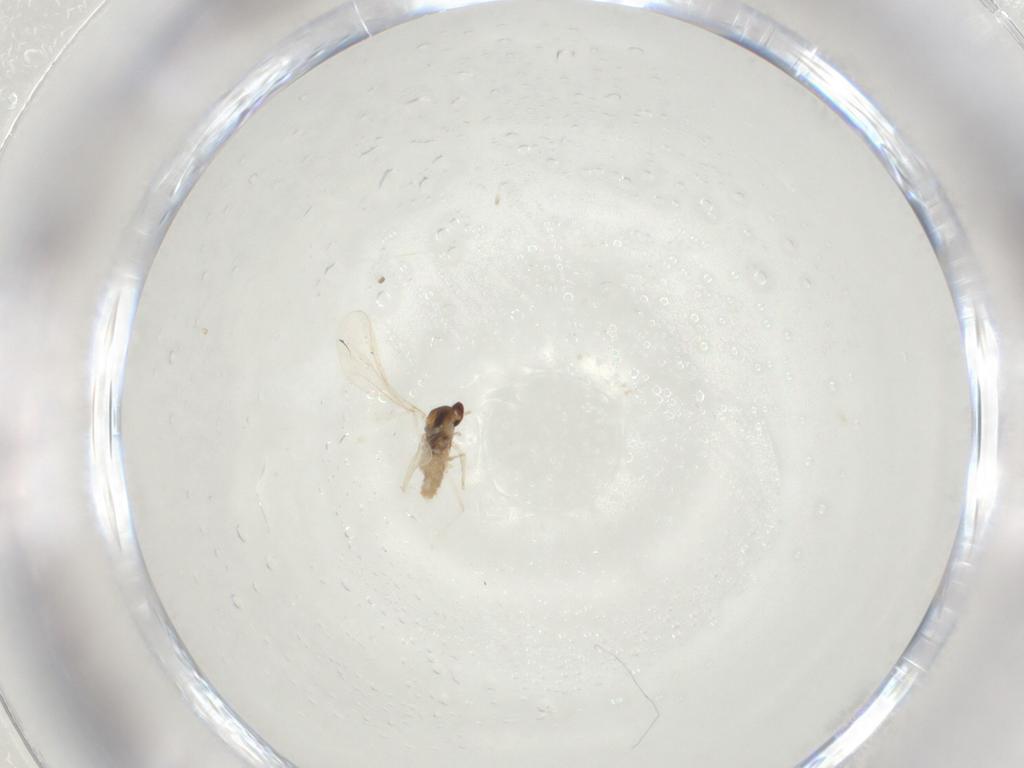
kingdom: Animalia
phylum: Arthropoda
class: Insecta
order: Diptera
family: Cecidomyiidae
